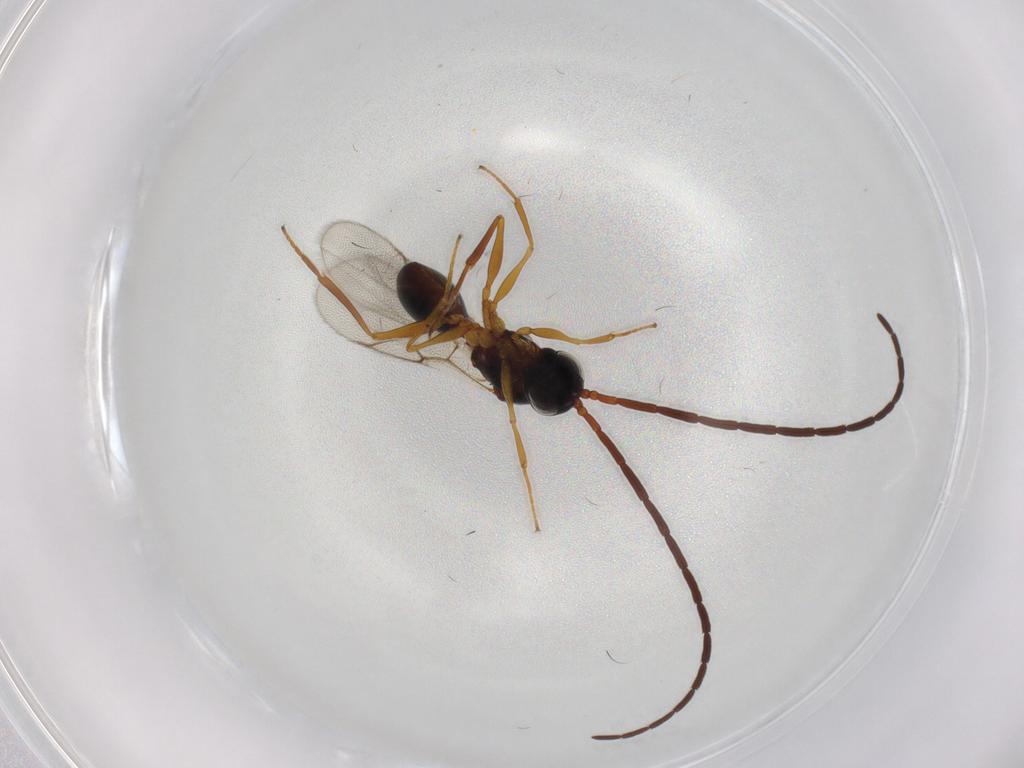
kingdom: Animalia
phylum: Arthropoda
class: Insecta
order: Hymenoptera
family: Figitidae
